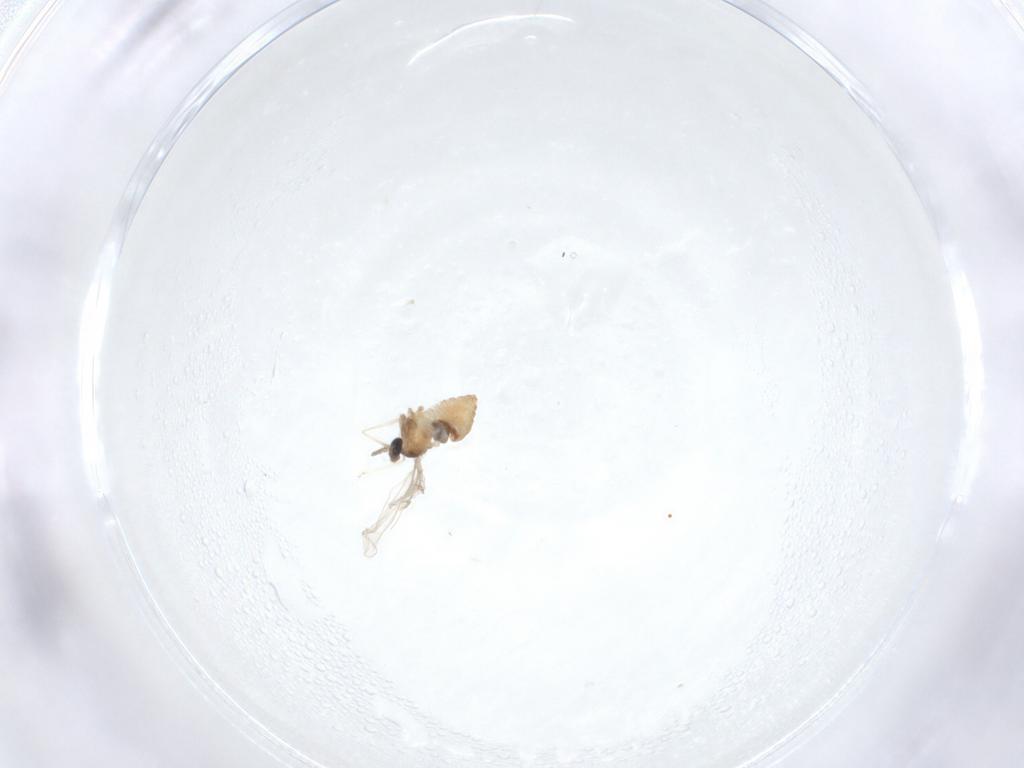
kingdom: Animalia
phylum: Arthropoda
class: Insecta
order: Diptera
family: Cecidomyiidae
